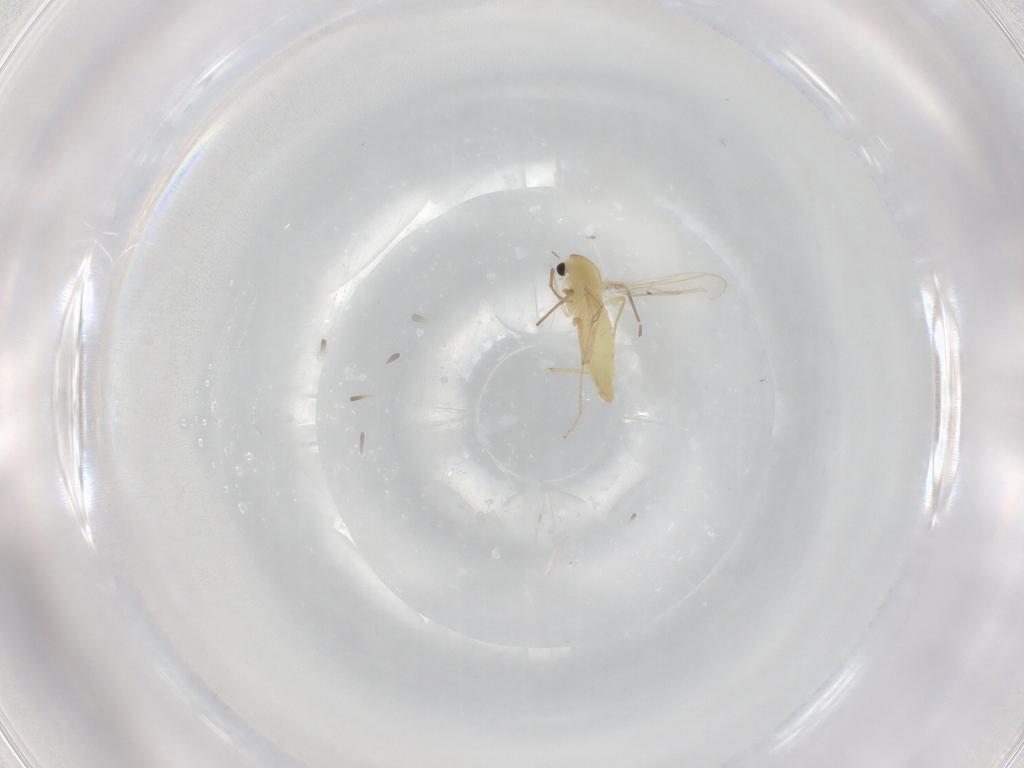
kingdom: Animalia
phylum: Arthropoda
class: Insecta
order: Diptera
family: Chironomidae
